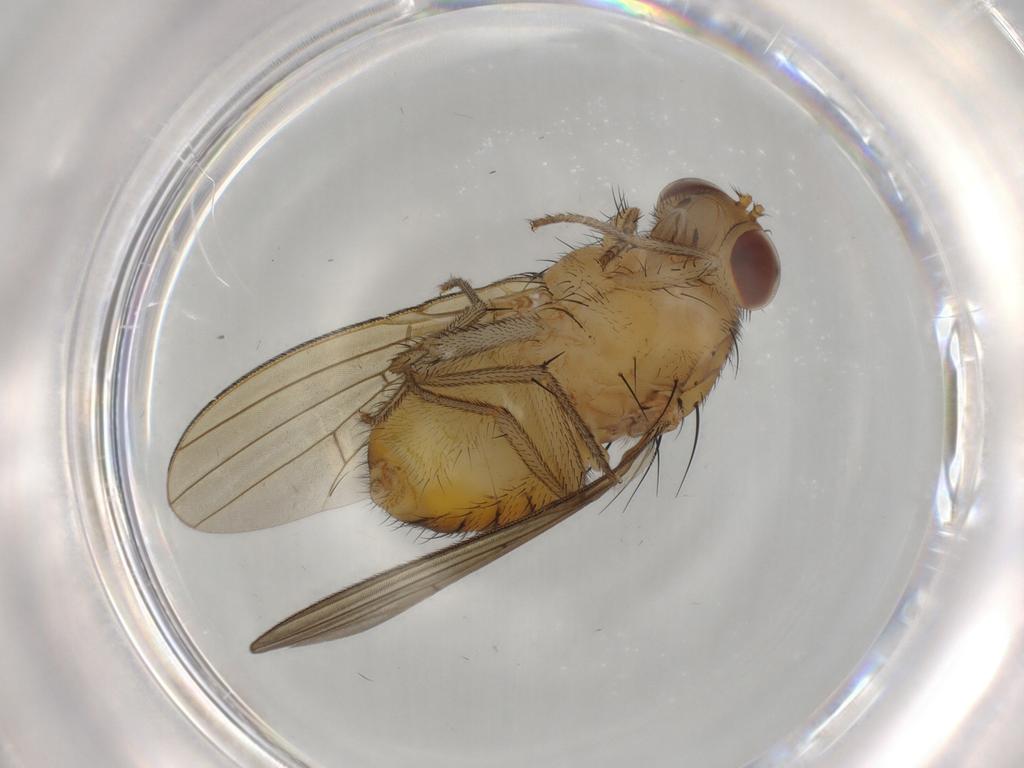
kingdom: Animalia
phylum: Arthropoda
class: Insecta
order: Diptera
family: Stratiomyidae
